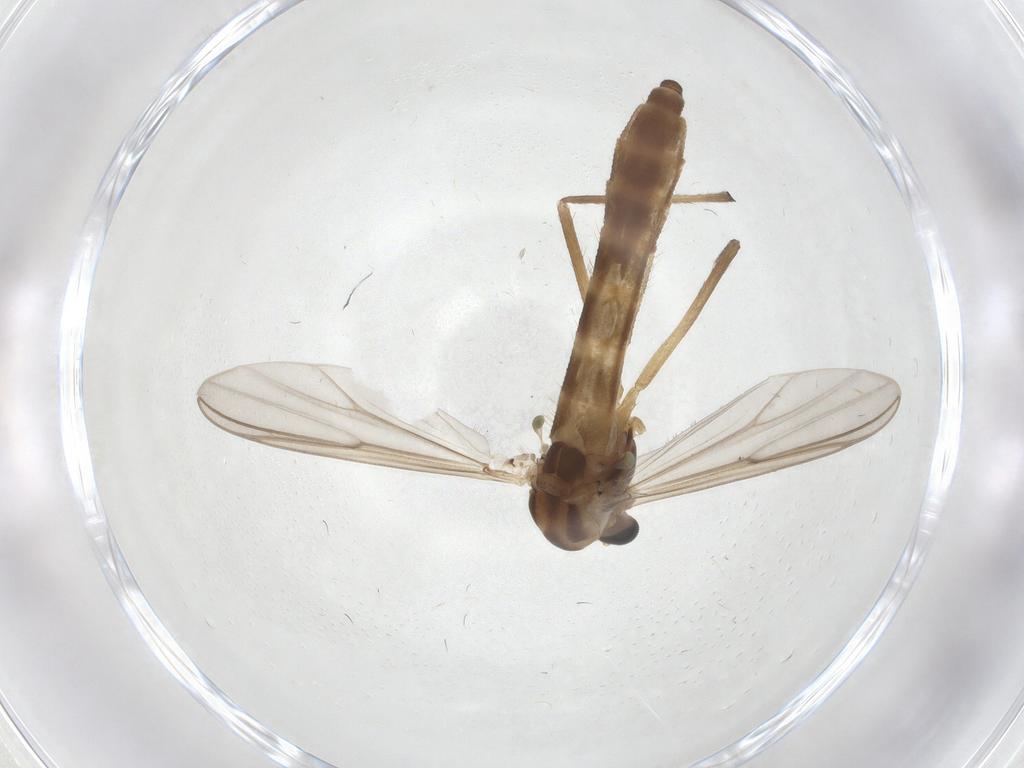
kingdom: Animalia
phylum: Arthropoda
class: Insecta
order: Diptera
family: Chironomidae
